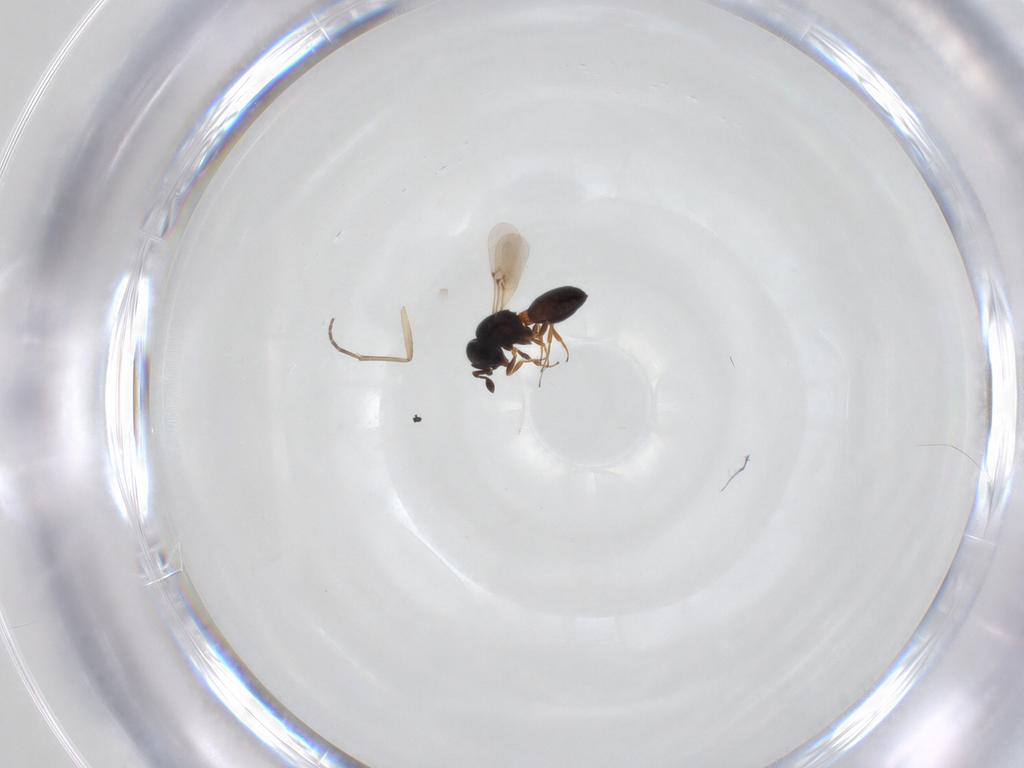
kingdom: Animalia
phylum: Arthropoda
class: Insecta
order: Hymenoptera
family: Scelionidae
